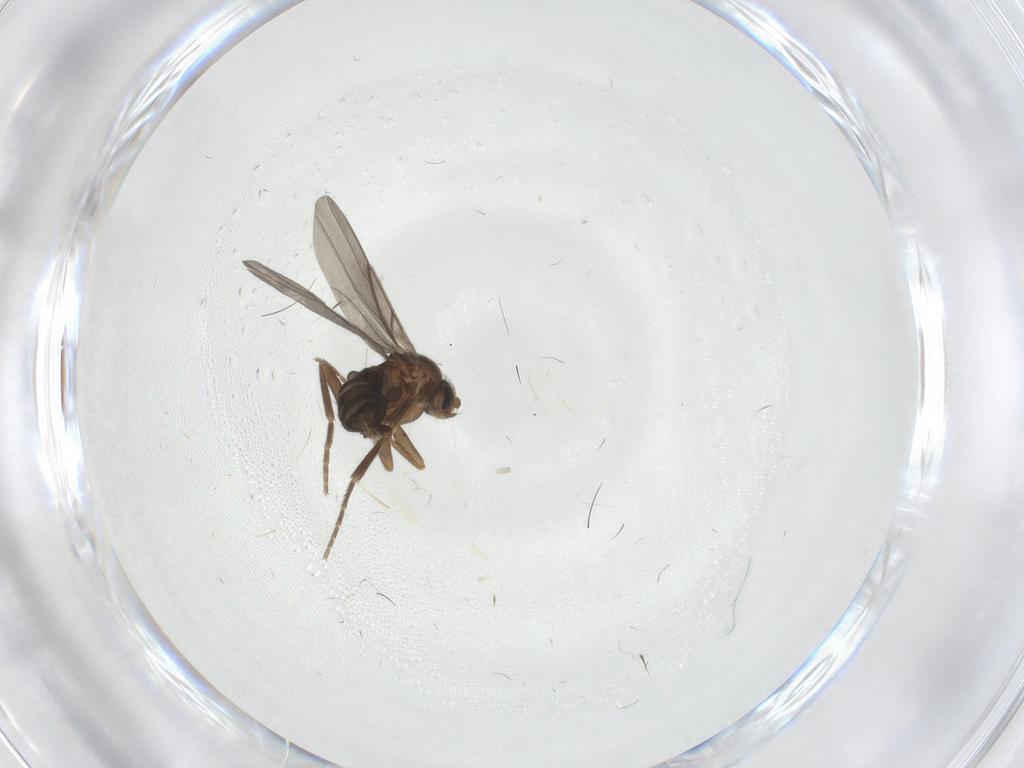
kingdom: Animalia
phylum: Arthropoda
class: Insecta
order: Diptera
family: Phoridae
